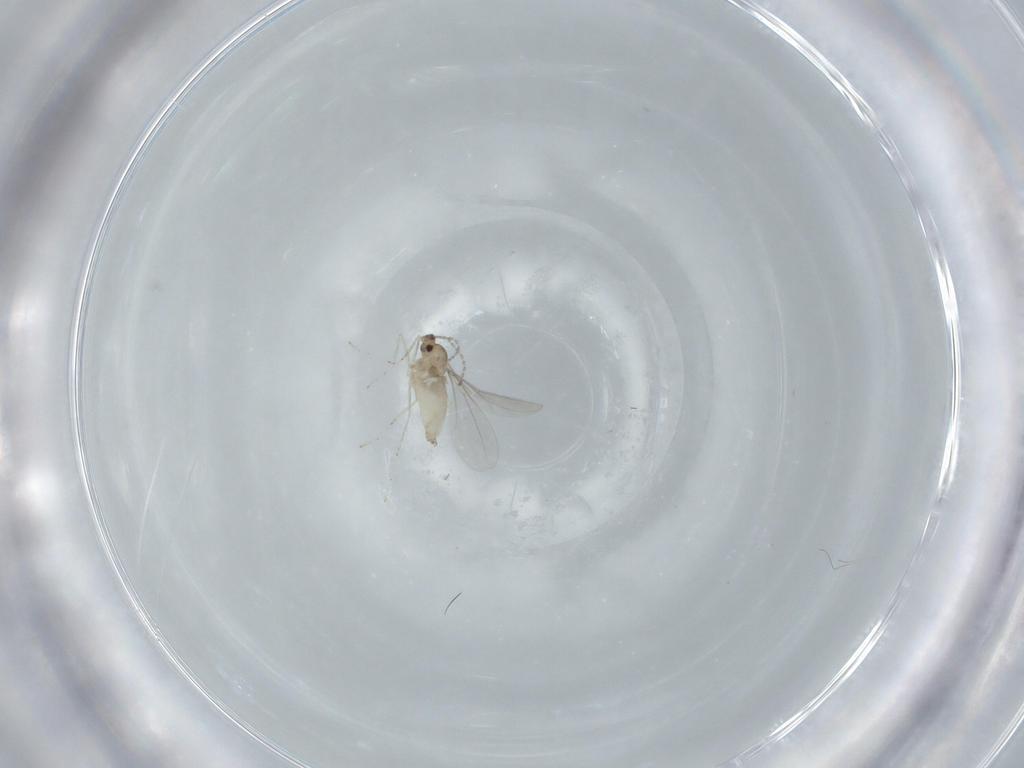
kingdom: Animalia
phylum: Arthropoda
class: Insecta
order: Diptera
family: Cecidomyiidae
